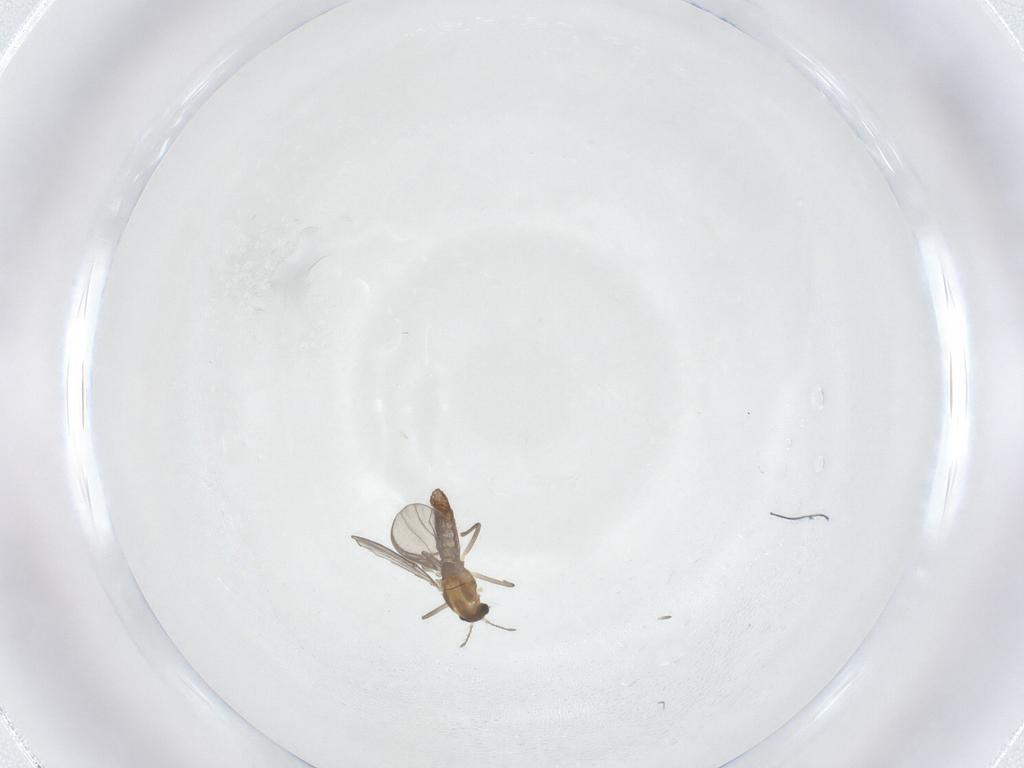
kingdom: Animalia
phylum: Arthropoda
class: Insecta
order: Diptera
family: Chironomidae
